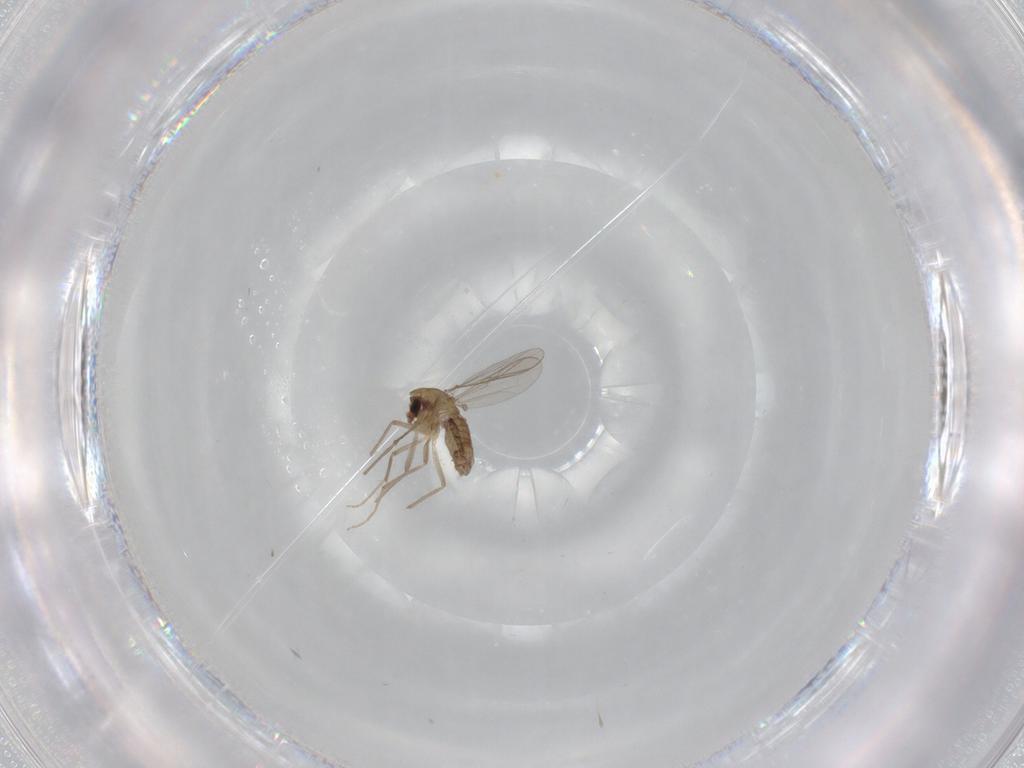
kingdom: Animalia
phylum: Arthropoda
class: Insecta
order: Diptera
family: Chironomidae
